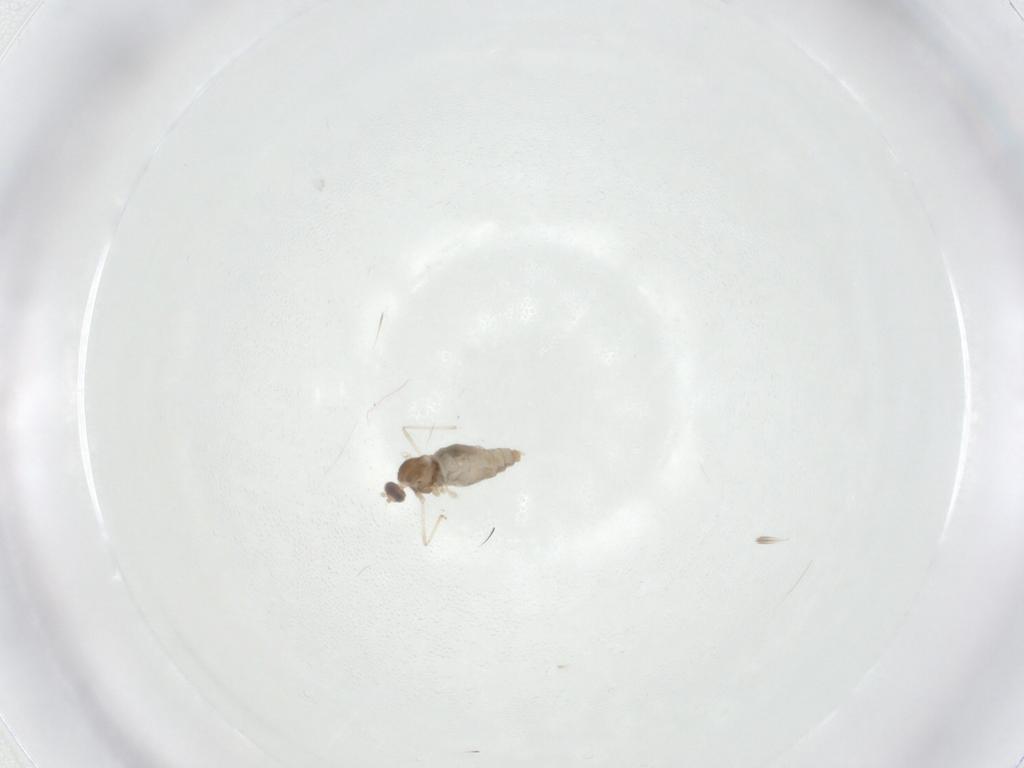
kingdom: Animalia
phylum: Arthropoda
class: Insecta
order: Diptera
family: Cecidomyiidae
